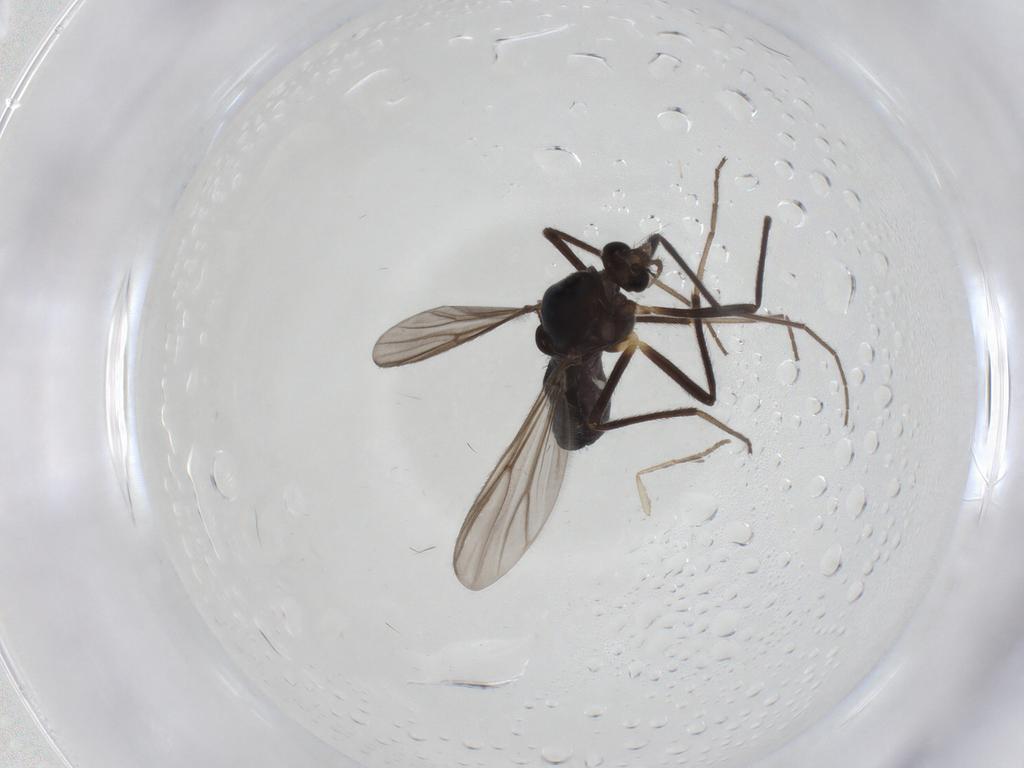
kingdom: Animalia
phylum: Arthropoda
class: Insecta
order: Diptera
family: Chironomidae
